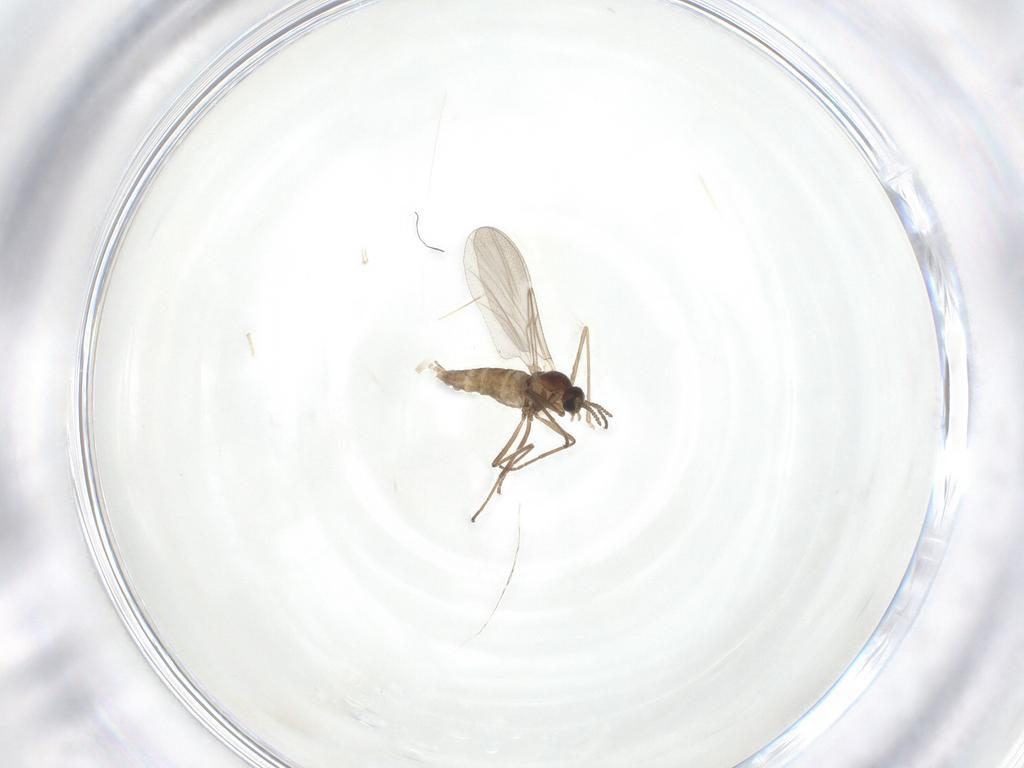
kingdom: Animalia
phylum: Arthropoda
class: Insecta
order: Diptera
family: Cecidomyiidae
